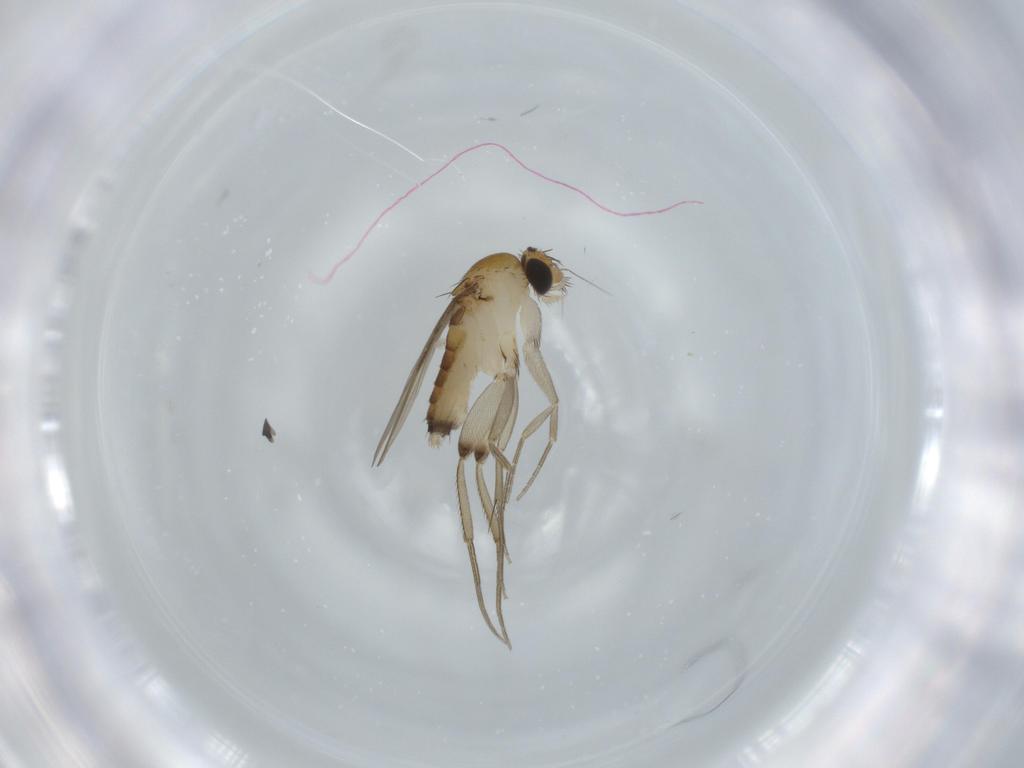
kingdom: Animalia
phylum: Arthropoda
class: Insecta
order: Diptera
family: Phoridae
